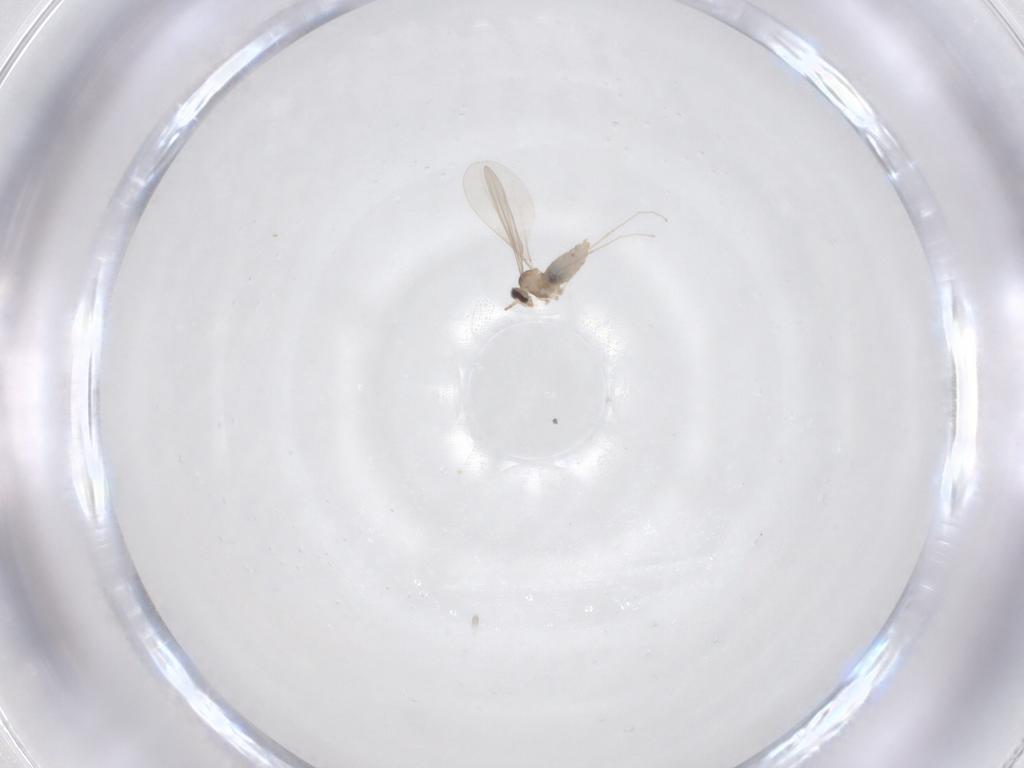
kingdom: Animalia
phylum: Arthropoda
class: Insecta
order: Diptera
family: Cecidomyiidae
